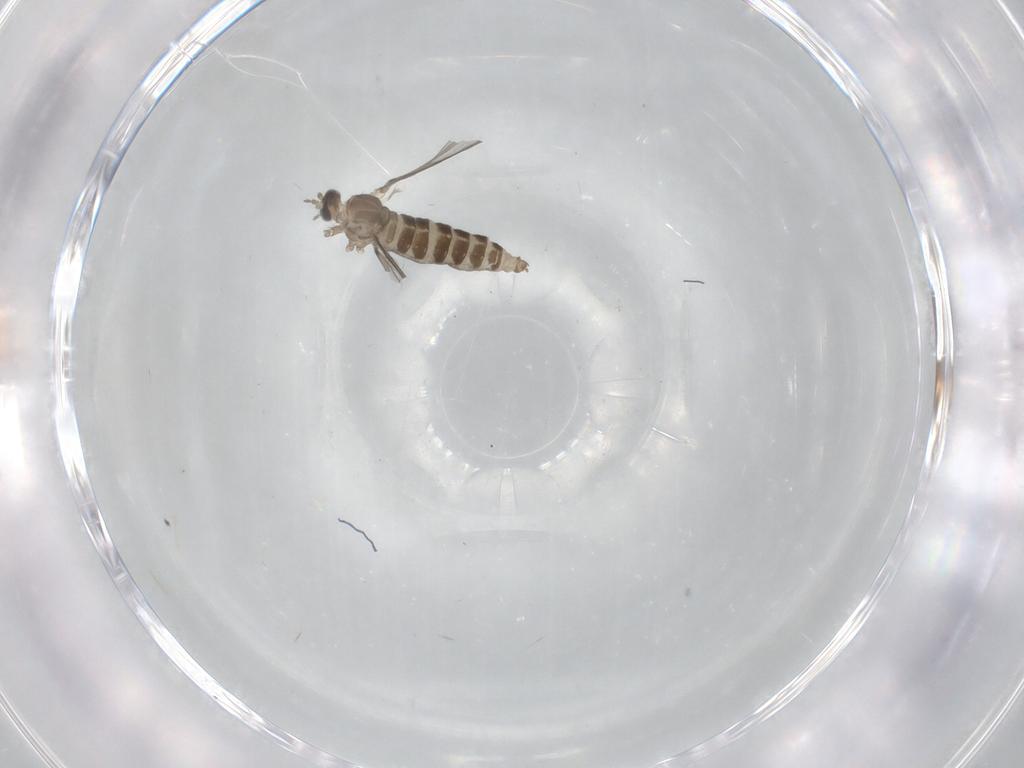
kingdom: Animalia
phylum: Arthropoda
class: Insecta
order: Diptera
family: Cecidomyiidae
